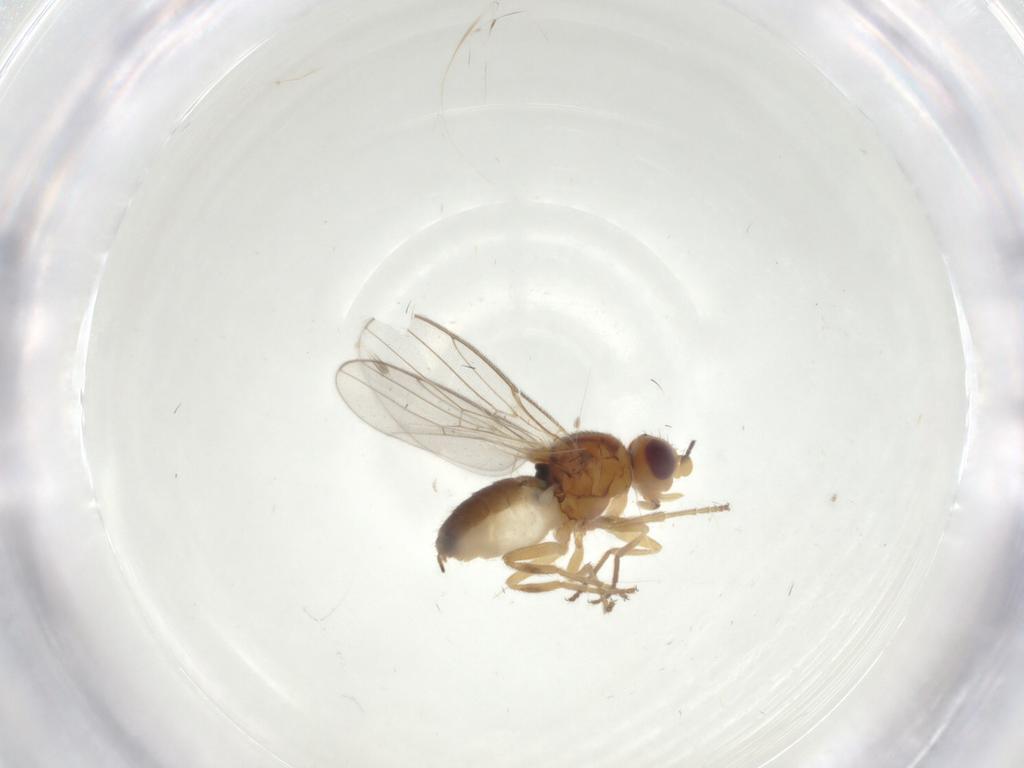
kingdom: Animalia
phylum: Arthropoda
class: Insecta
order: Diptera
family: Chloropidae
